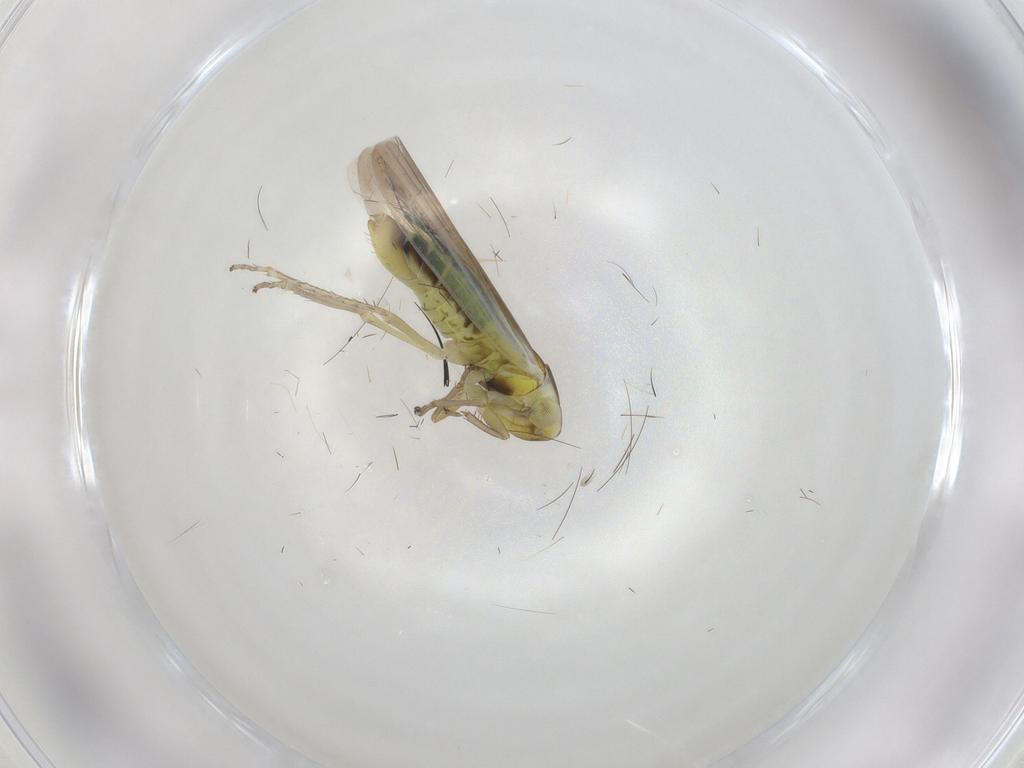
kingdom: Animalia
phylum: Arthropoda
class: Insecta
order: Hemiptera
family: Cicadellidae
